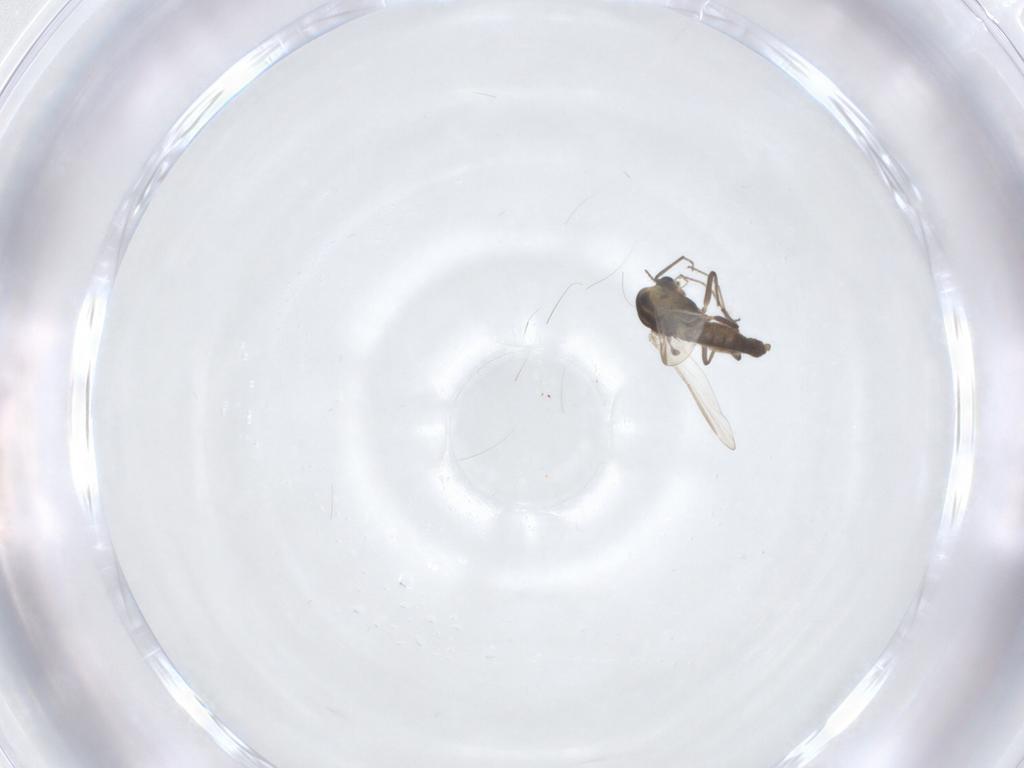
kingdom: Animalia
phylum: Arthropoda
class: Insecta
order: Diptera
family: Chironomidae
